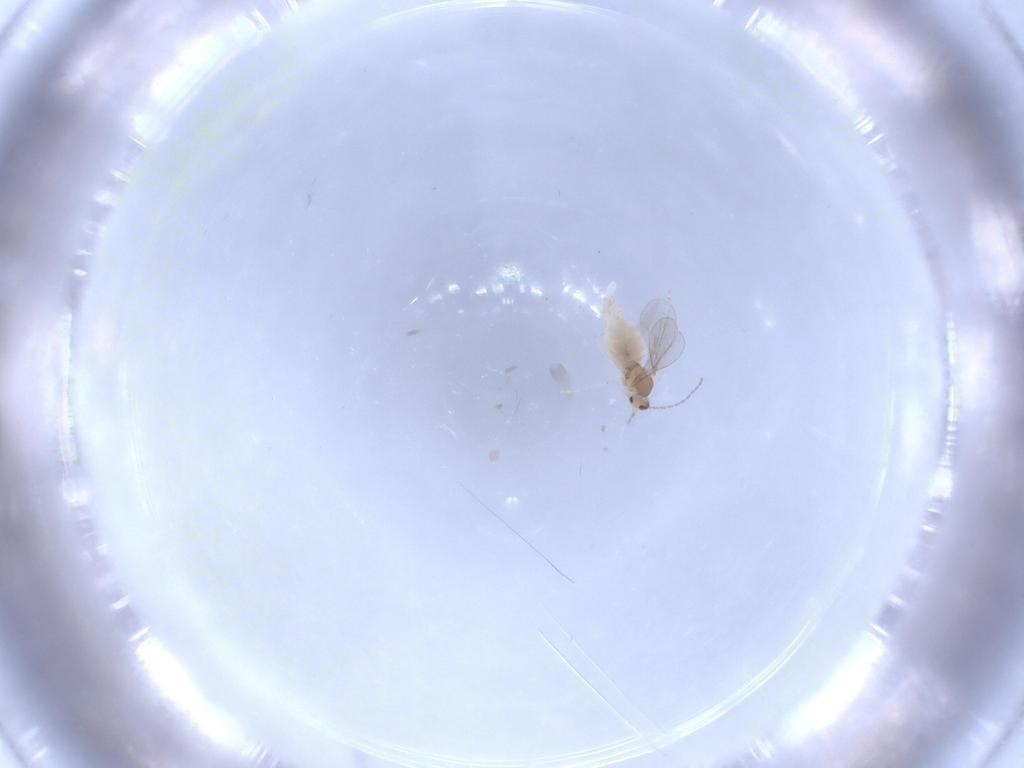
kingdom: Animalia
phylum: Arthropoda
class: Insecta
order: Diptera
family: Cecidomyiidae
